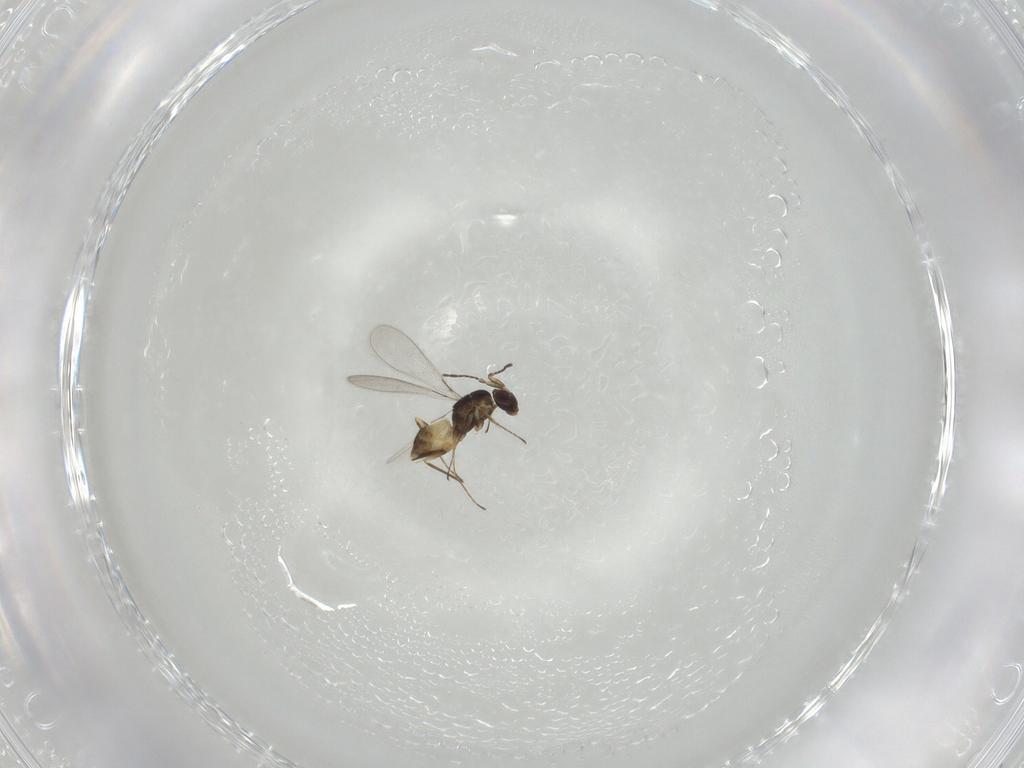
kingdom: Animalia
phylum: Arthropoda
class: Insecta
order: Hymenoptera
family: Mymaridae
